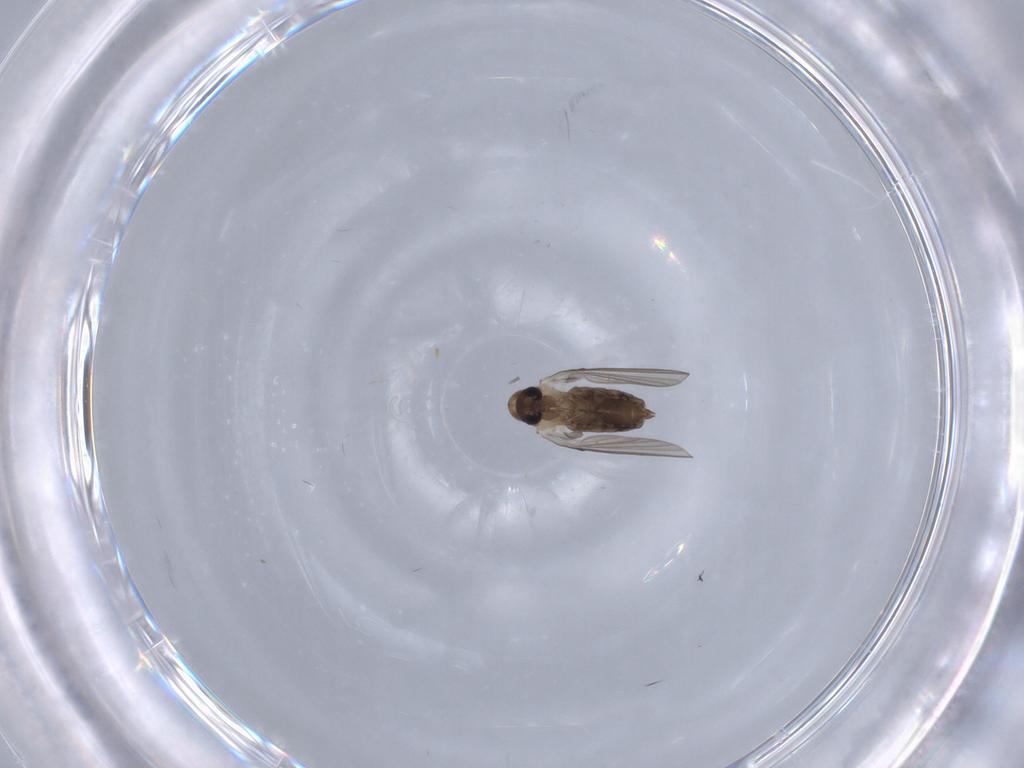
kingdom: Animalia
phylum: Arthropoda
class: Insecta
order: Diptera
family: Psychodidae
